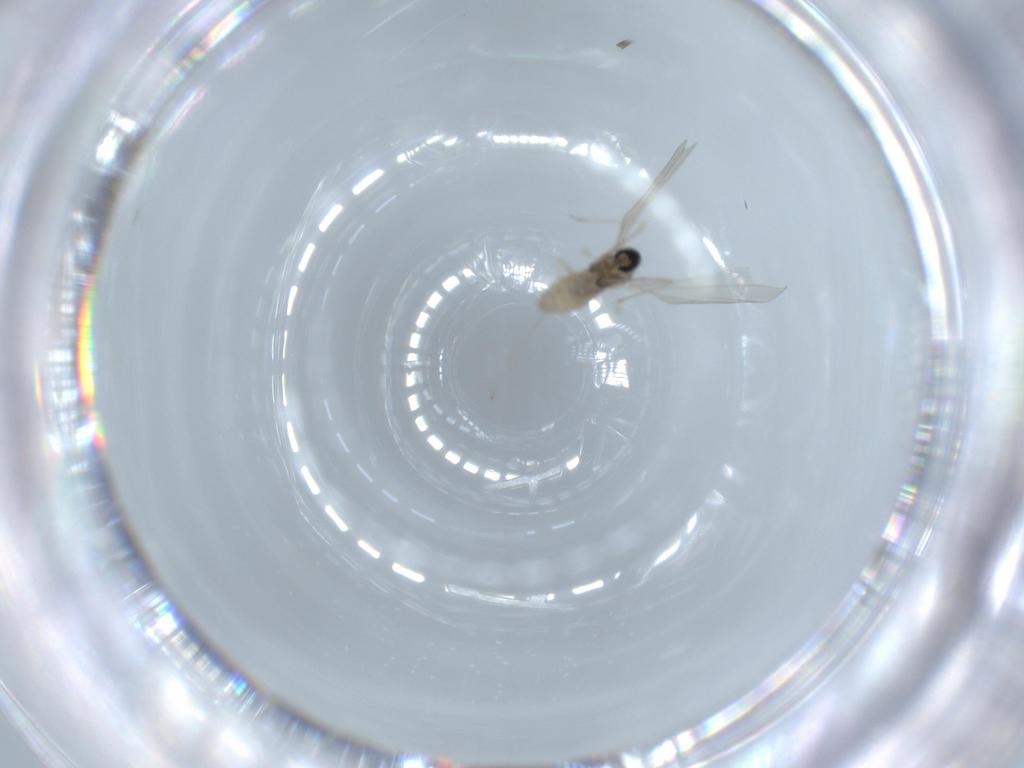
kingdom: Animalia
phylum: Arthropoda
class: Insecta
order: Diptera
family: Cecidomyiidae
